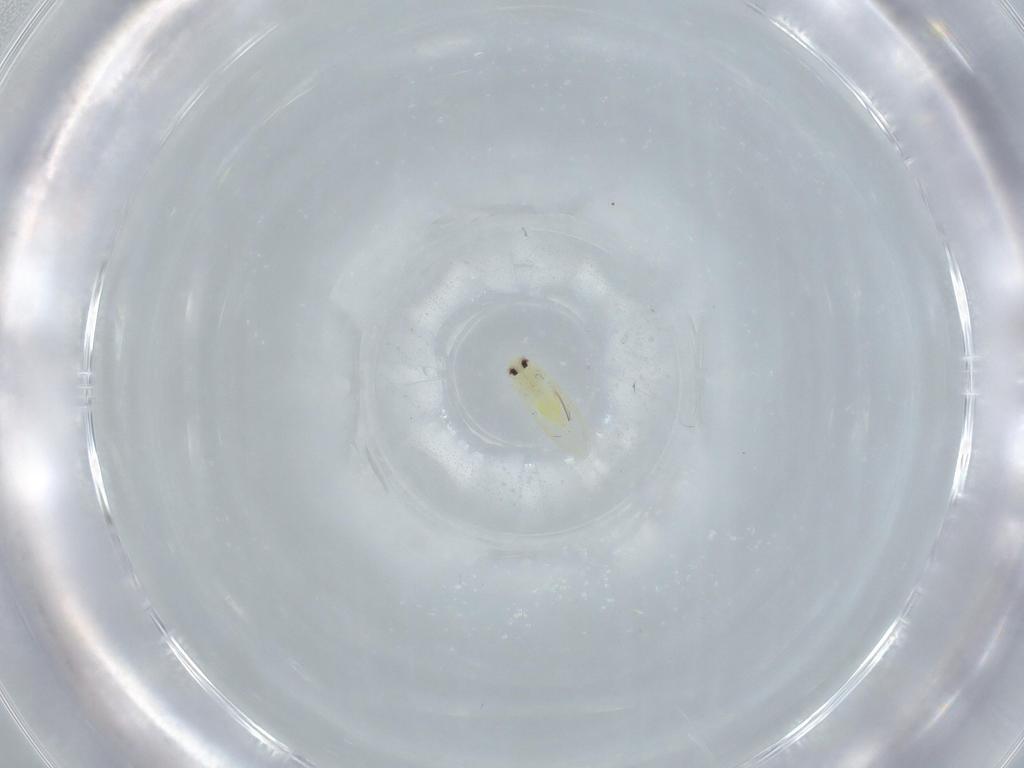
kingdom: Animalia
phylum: Arthropoda
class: Insecta
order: Hemiptera
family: Aleyrodidae
